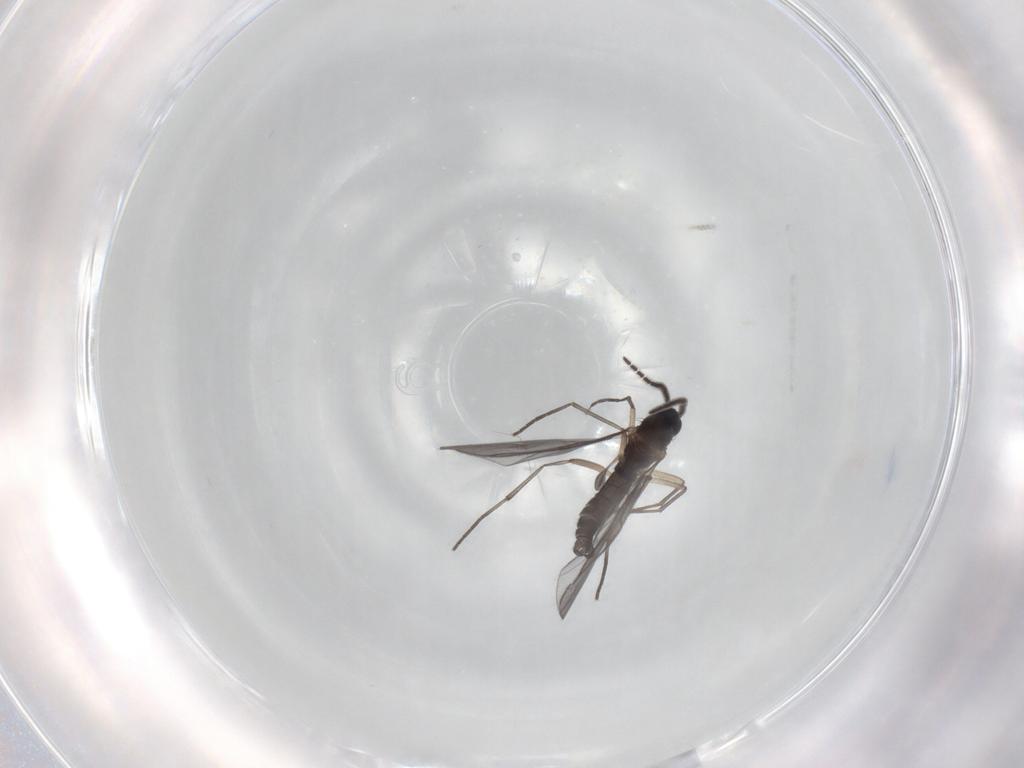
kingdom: Animalia
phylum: Arthropoda
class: Insecta
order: Diptera
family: Sciaridae
